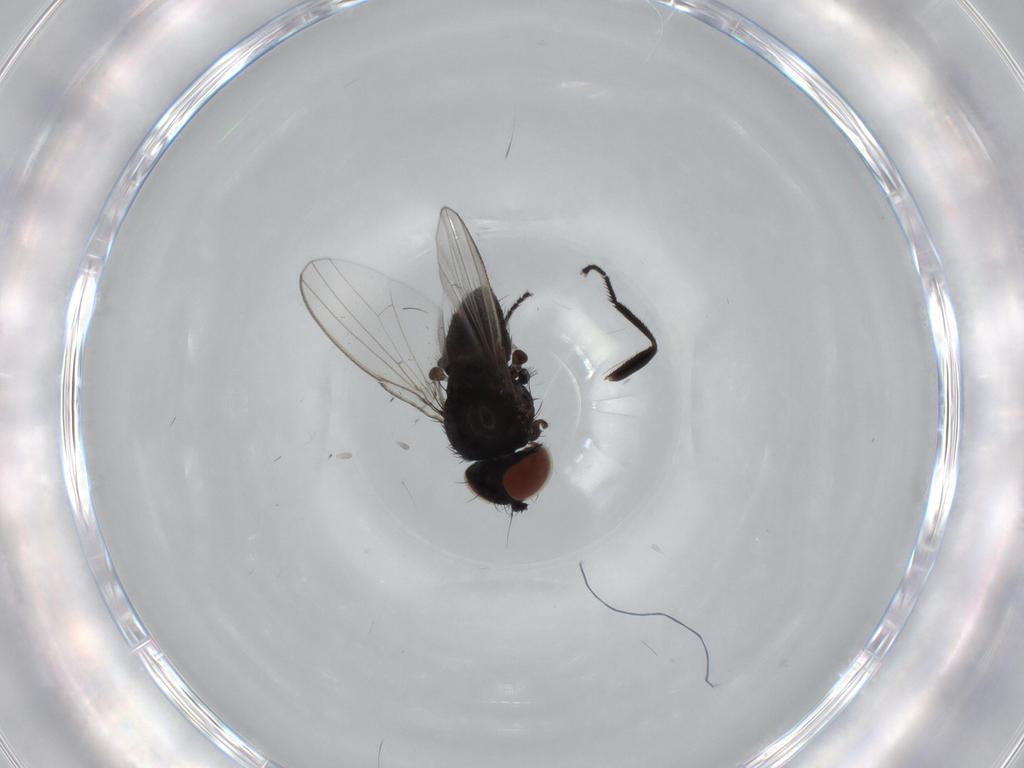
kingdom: Animalia
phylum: Arthropoda
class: Insecta
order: Diptera
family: Milichiidae
